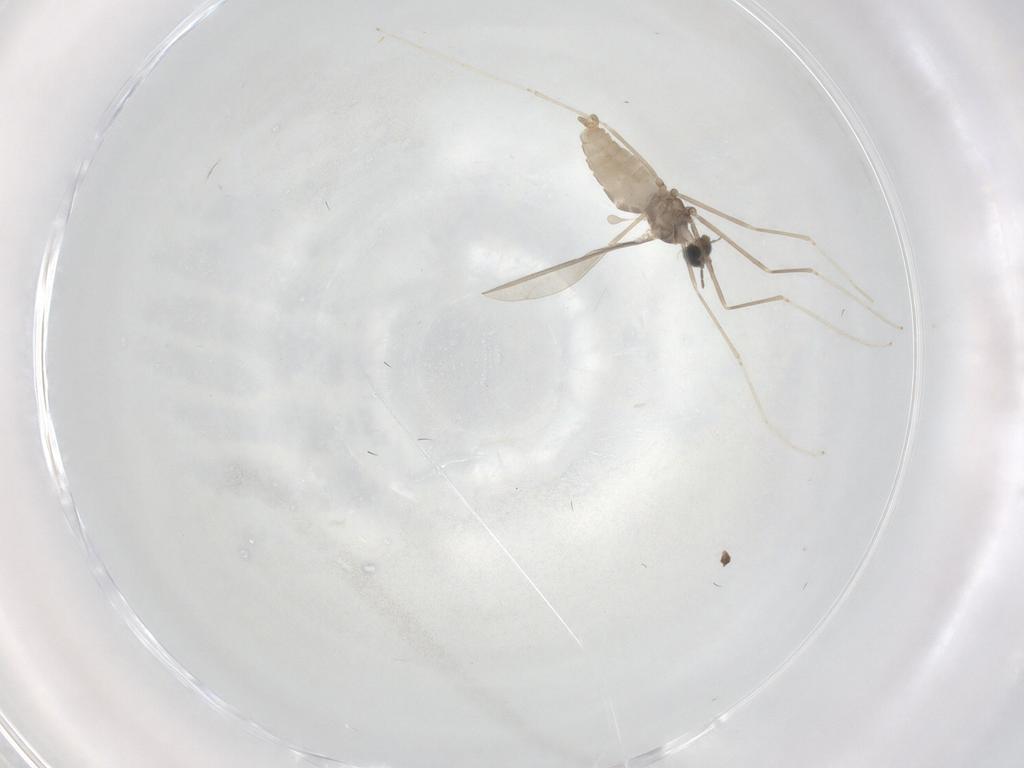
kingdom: Animalia
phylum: Arthropoda
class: Insecta
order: Diptera
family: Cecidomyiidae
